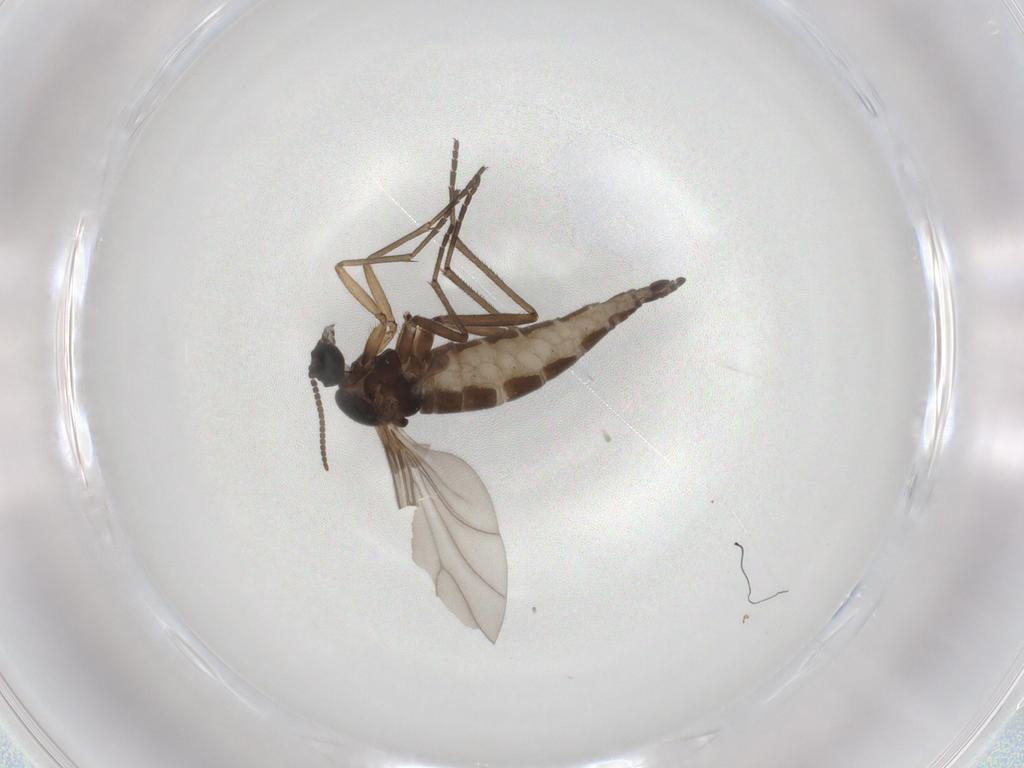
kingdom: Animalia
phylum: Arthropoda
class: Insecta
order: Diptera
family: Sciaridae
